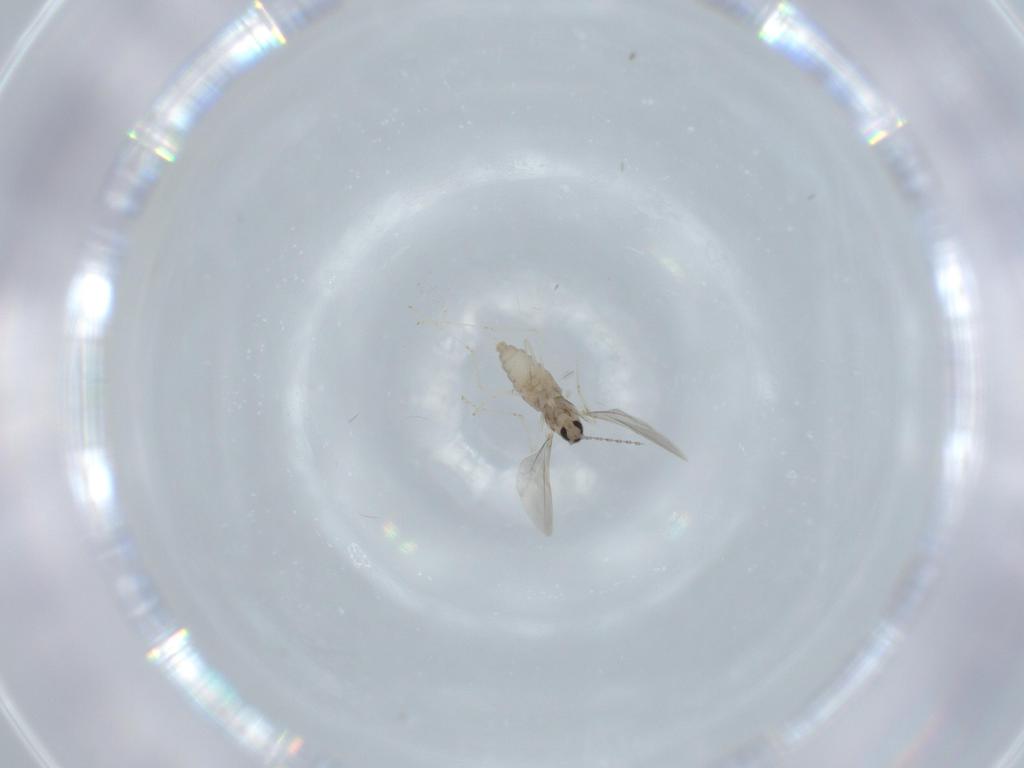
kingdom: Animalia
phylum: Arthropoda
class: Insecta
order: Diptera
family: Cecidomyiidae
